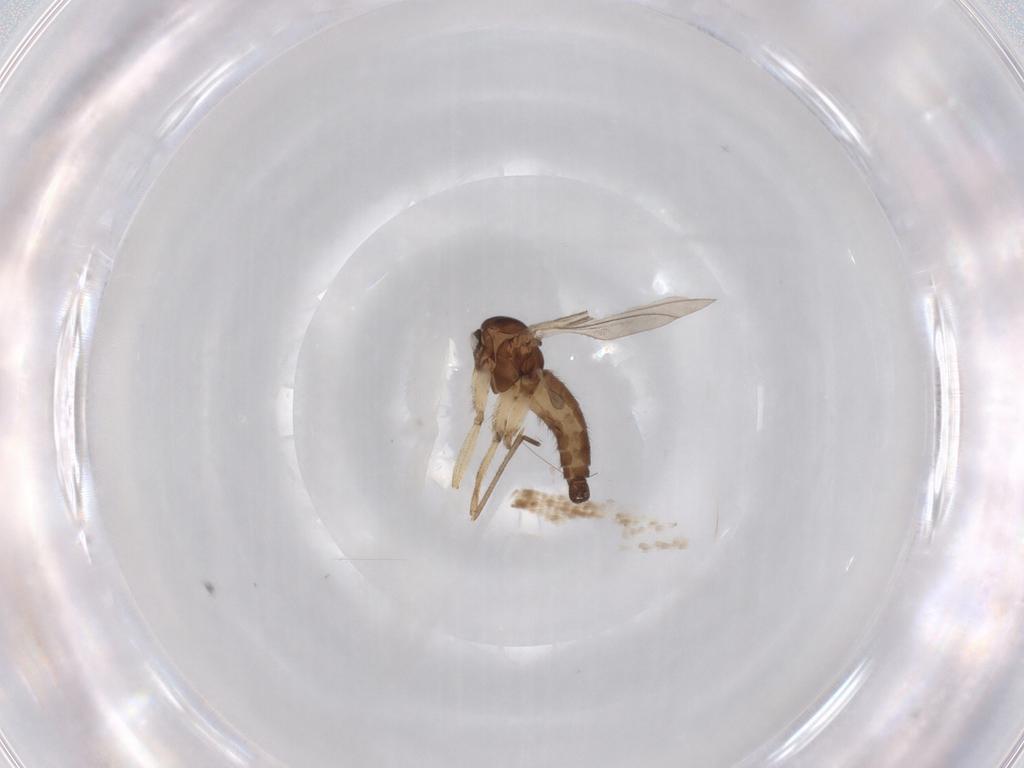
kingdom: Animalia
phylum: Arthropoda
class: Insecta
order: Diptera
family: Sciaridae
